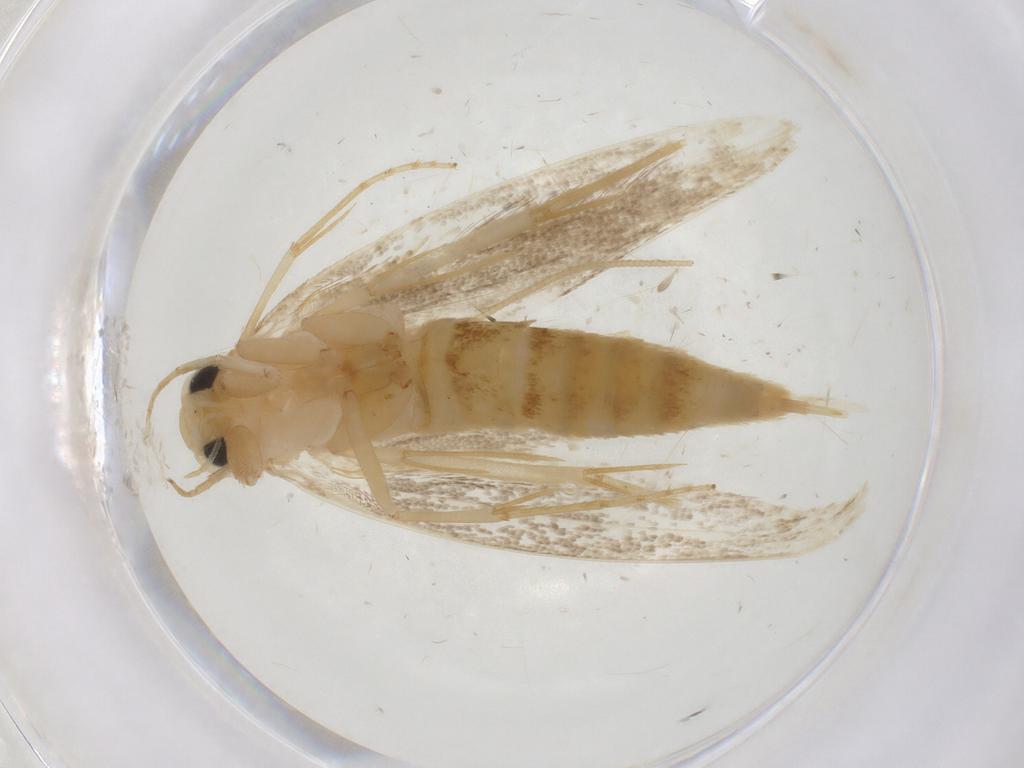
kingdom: Animalia
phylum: Arthropoda
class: Insecta
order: Lepidoptera
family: Tineidae
